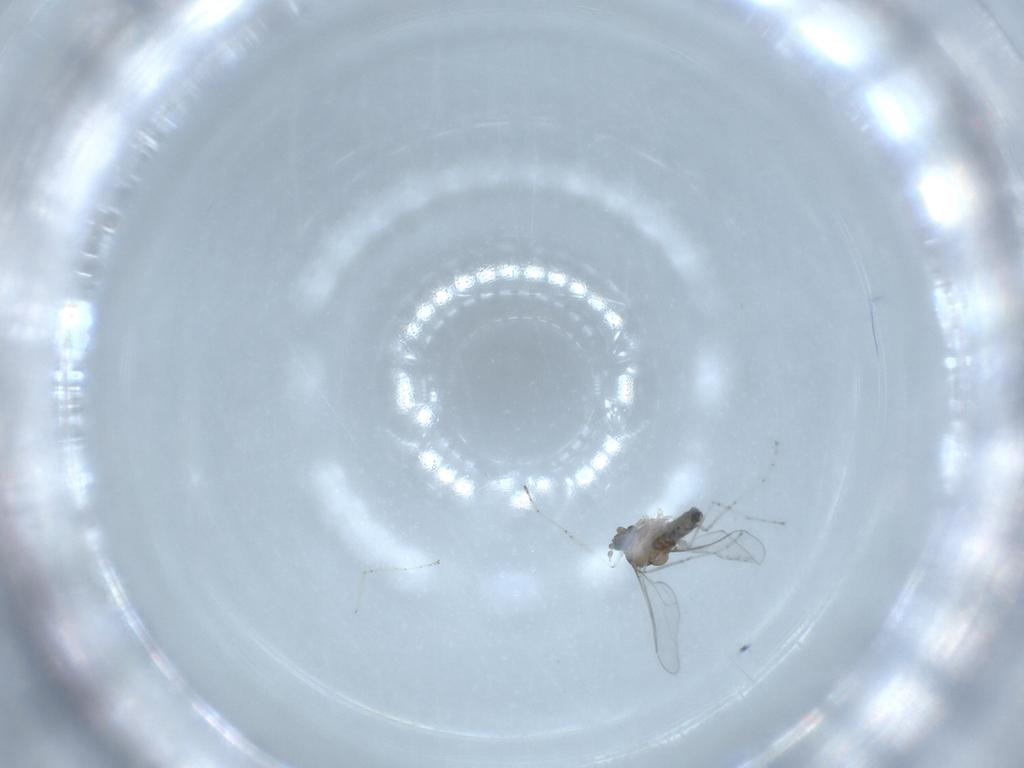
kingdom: Animalia
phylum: Arthropoda
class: Insecta
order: Diptera
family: Cecidomyiidae
